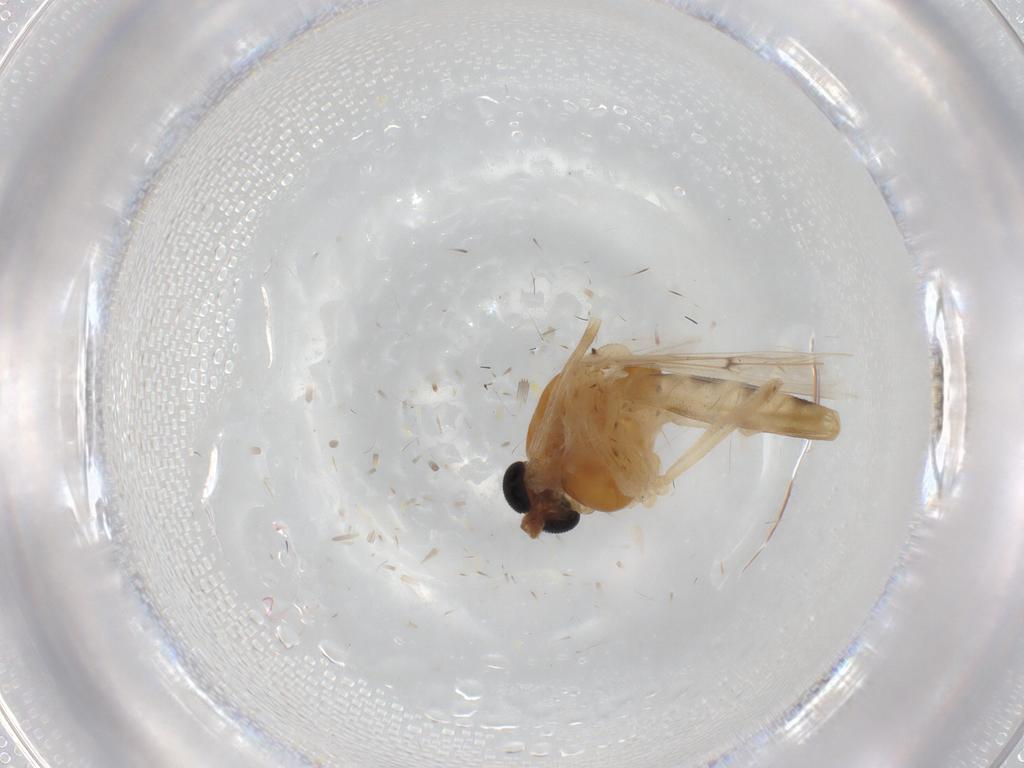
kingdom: Animalia
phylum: Arthropoda
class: Insecta
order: Diptera
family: Chironomidae
